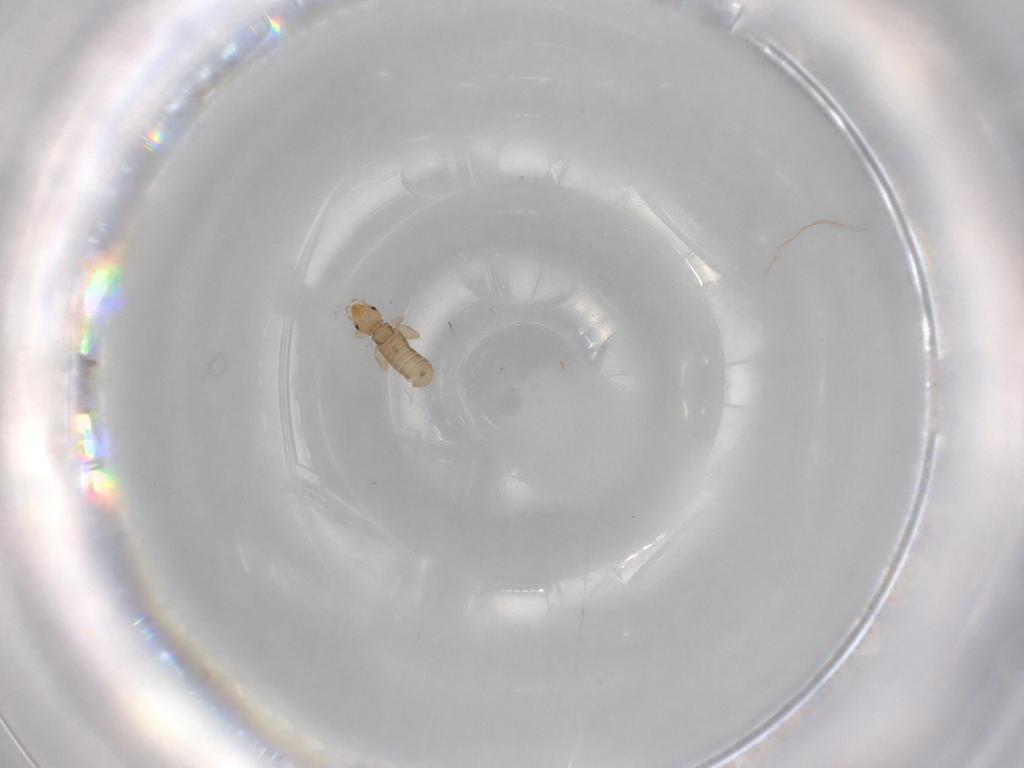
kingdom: Animalia
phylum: Arthropoda
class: Insecta
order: Psocodea
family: Liposcelididae
